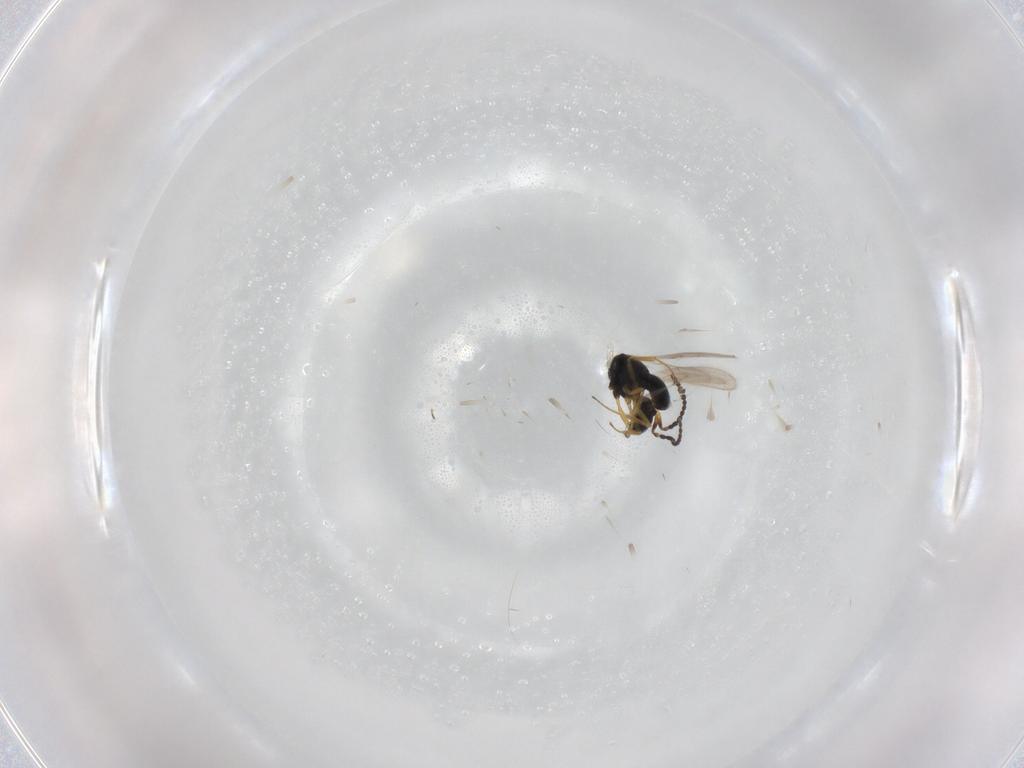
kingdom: Animalia
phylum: Arthropoda
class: Insecta
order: Hymenoptera
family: Scelionidae
